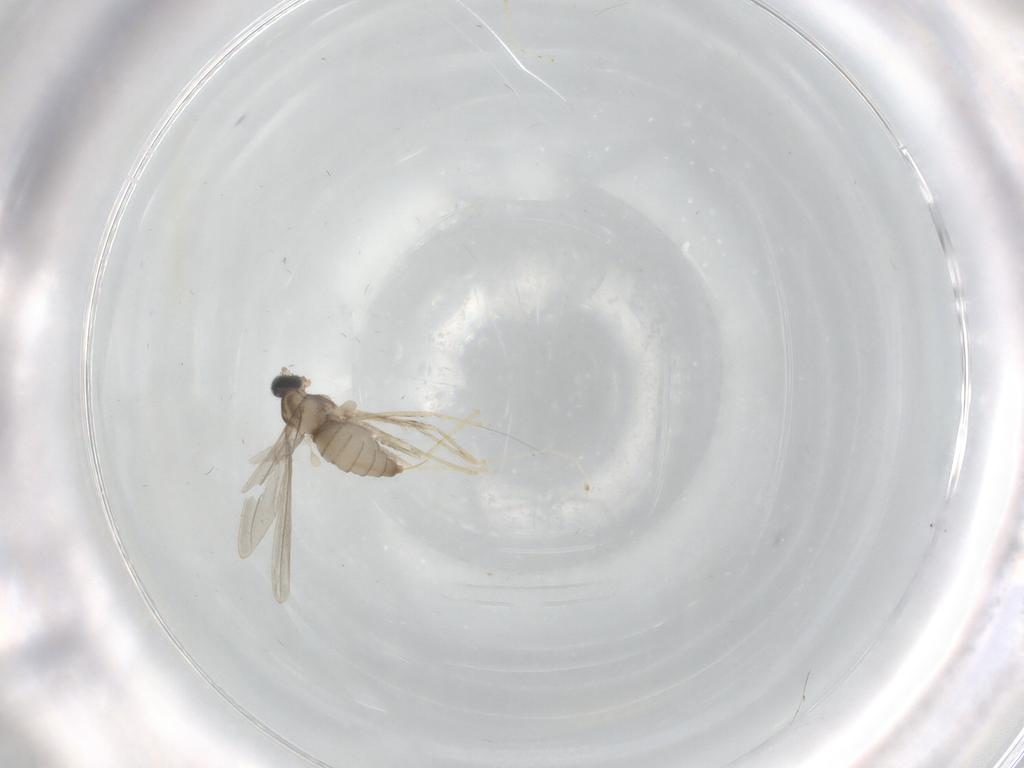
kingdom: Animalia
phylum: Arthropoda
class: Insecta
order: Diptera
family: Cecidomyiidae
